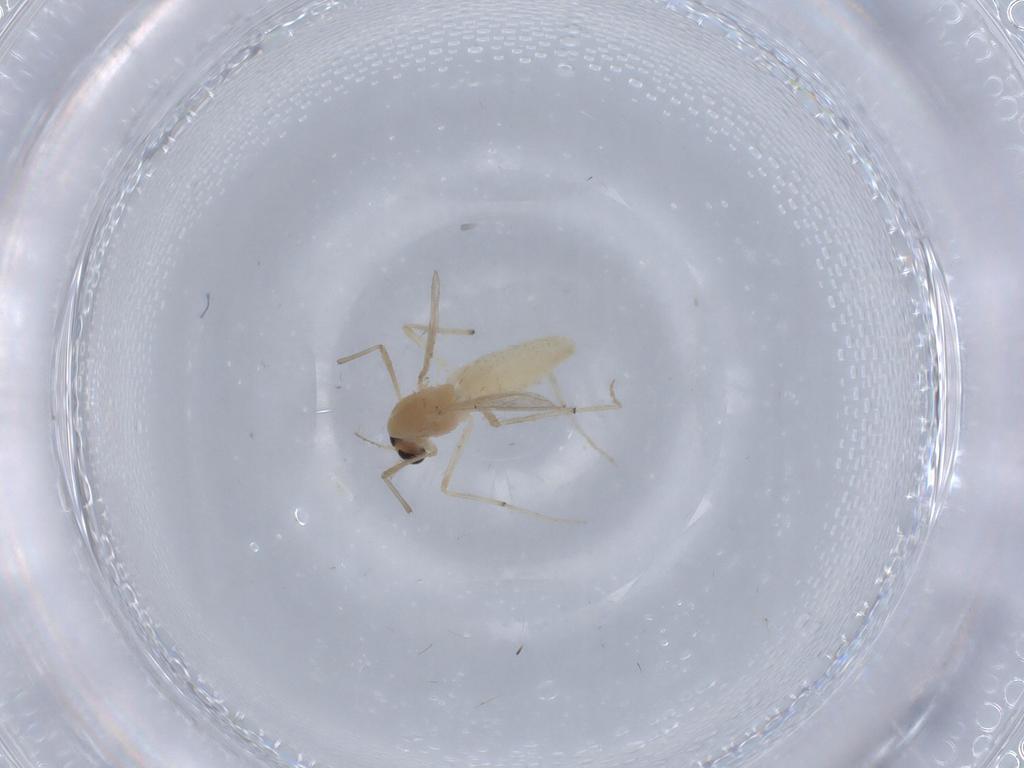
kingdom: Animalia
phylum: Arthropoda
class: Insecta
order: Diptera
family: Chironomidae
